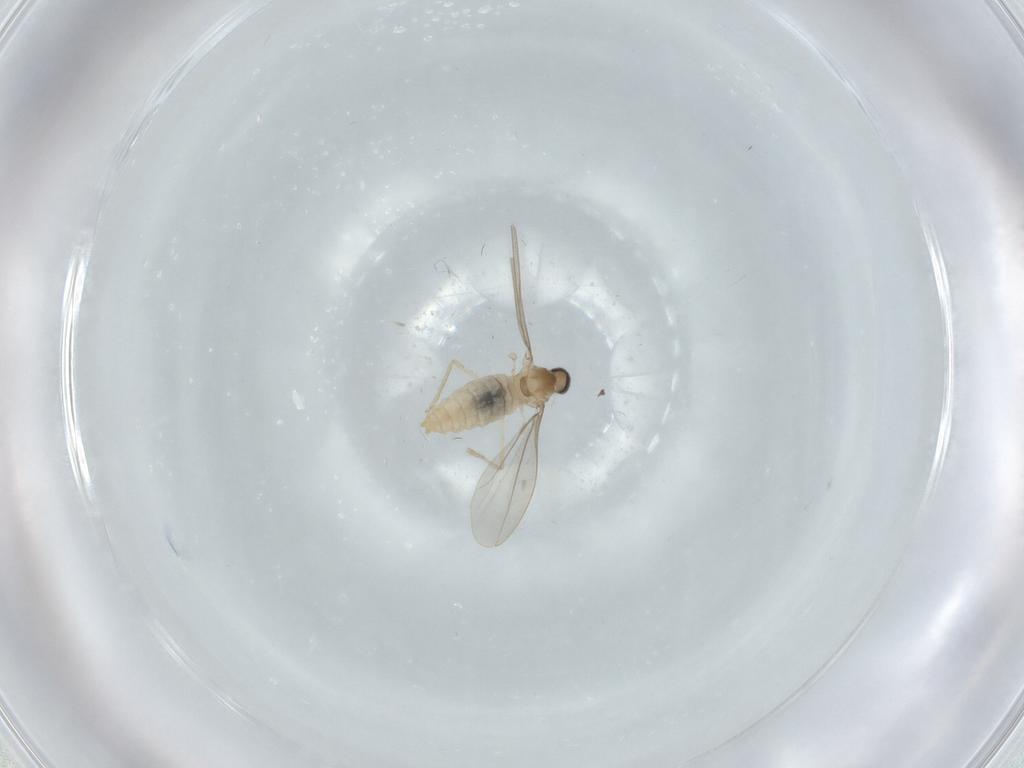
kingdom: Animalia
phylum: Arthropoda
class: Insecta
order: Diptera
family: Cecidomyiidae
